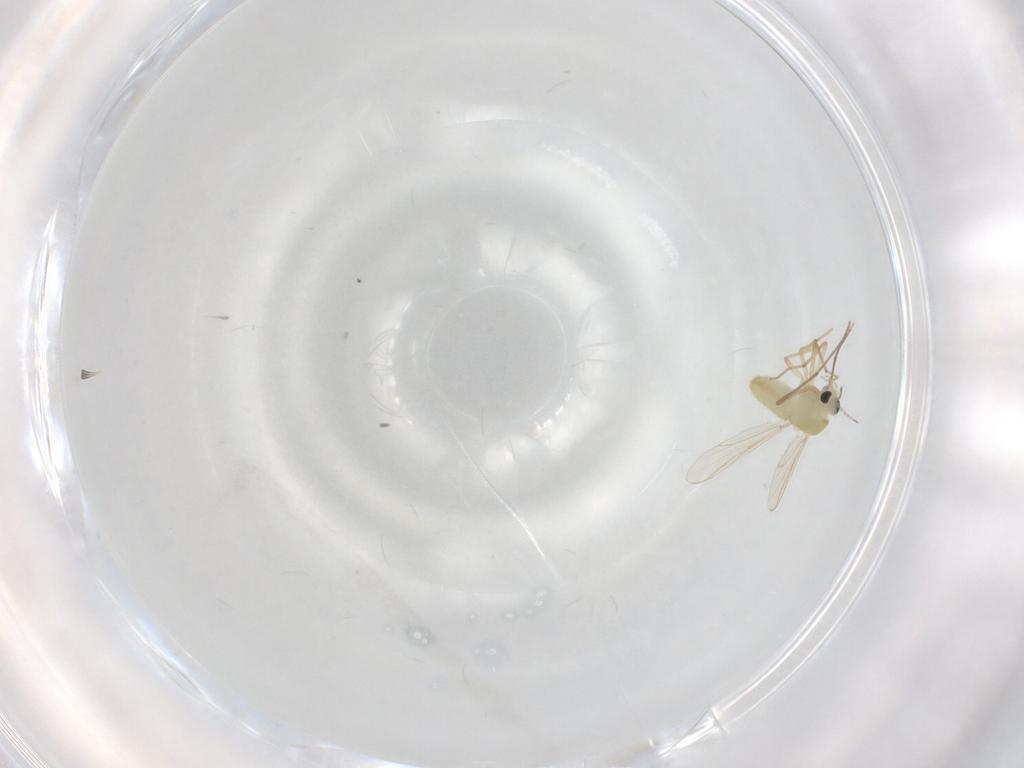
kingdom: Animalia
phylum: Arthropoda
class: Insecta
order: Diptera
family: Chironomidae
